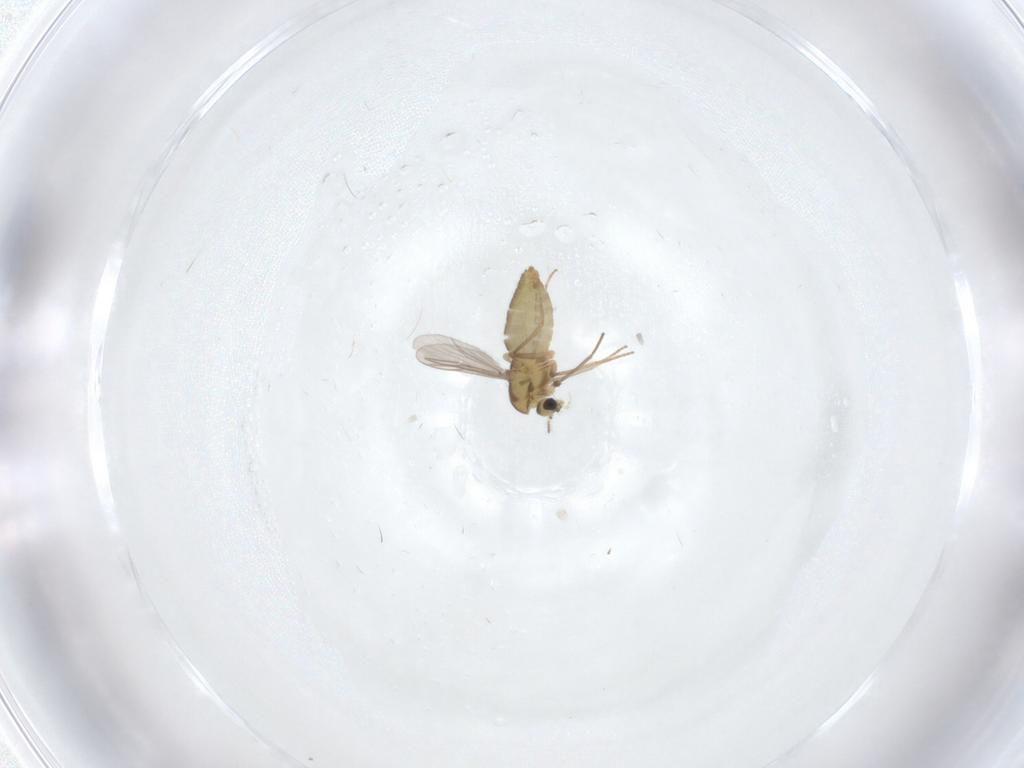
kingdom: Animalia
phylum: Arthropoda
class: Insecta
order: Diptera
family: Chironomidae
